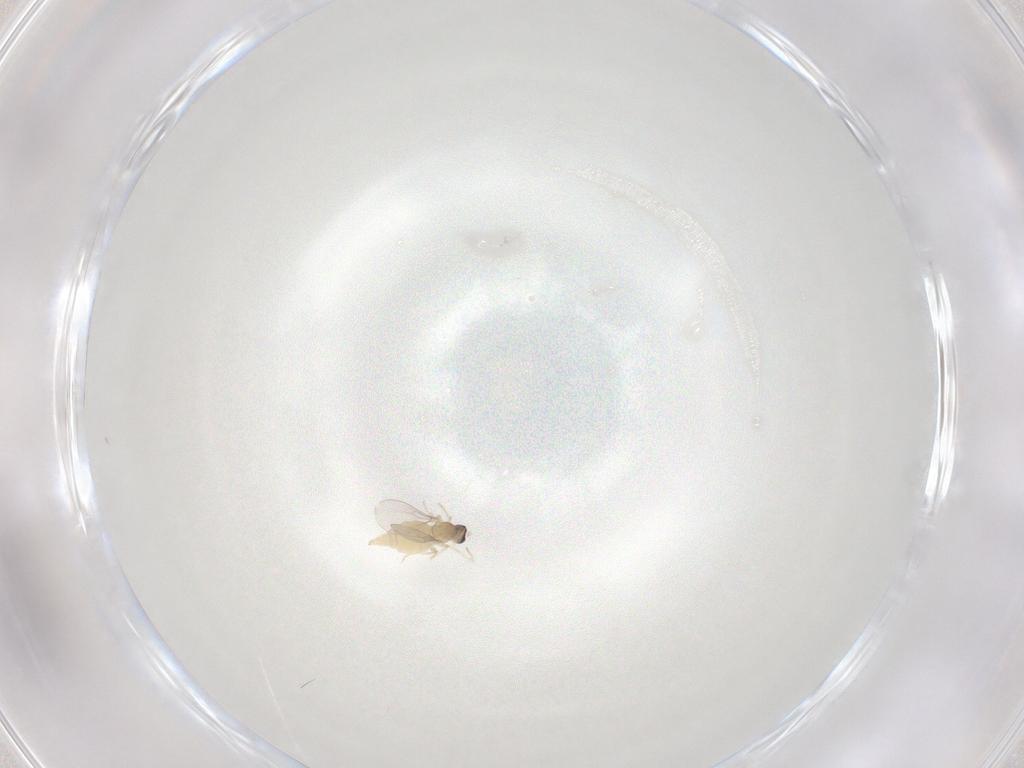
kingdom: Animalia
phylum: Arthropoda
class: Insecta
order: Diptera
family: Cecidomyiidae
